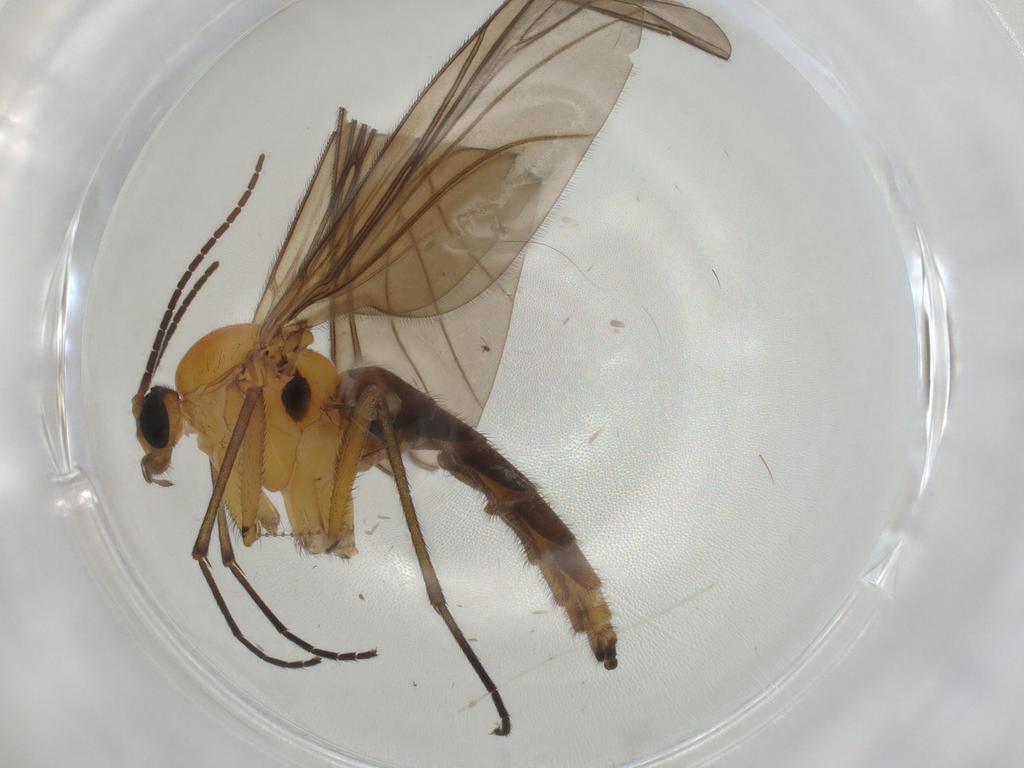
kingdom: Animalia
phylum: Arthropoda
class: Insecta
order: Diptera
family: Sciaridae
